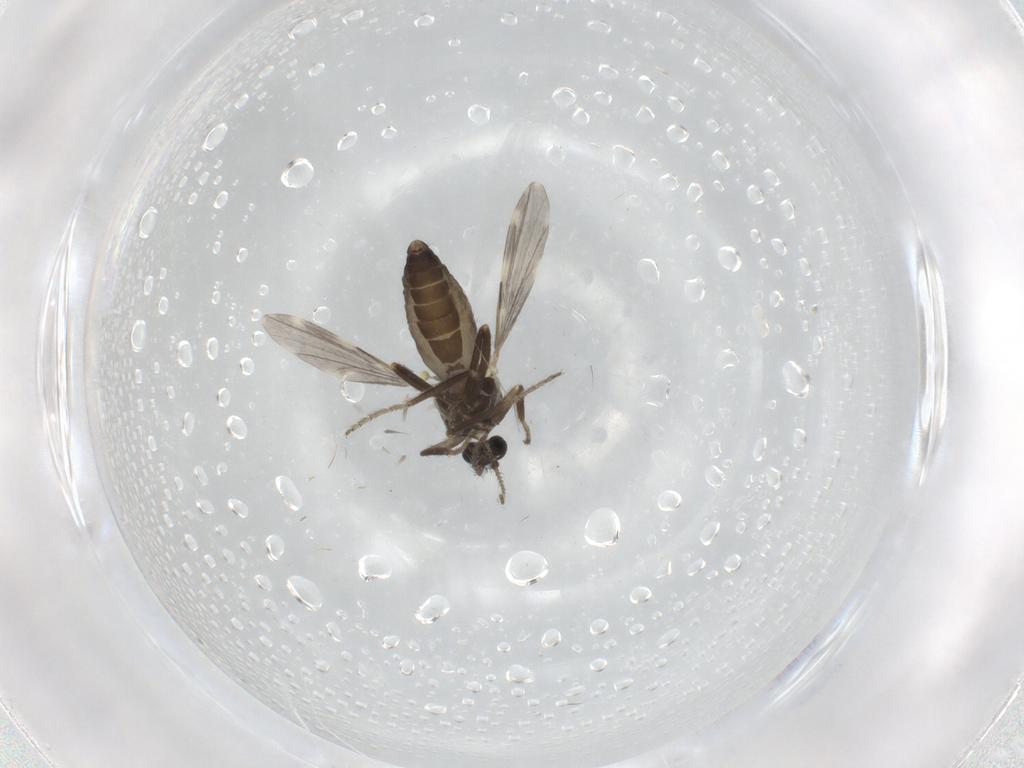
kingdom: Animalia
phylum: Arthropoda
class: Insecta
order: Diptera
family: Ceratopogonidae
